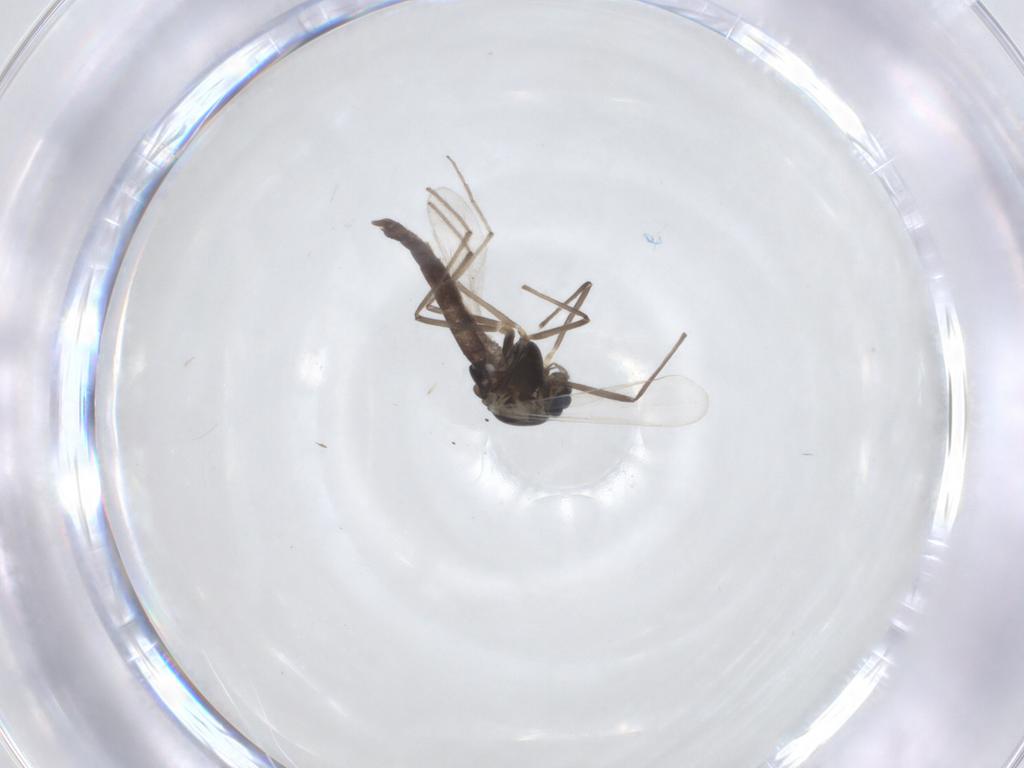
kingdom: Animalia
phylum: Arthropoda
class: Insecta
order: Diptera
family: Chironomidae
